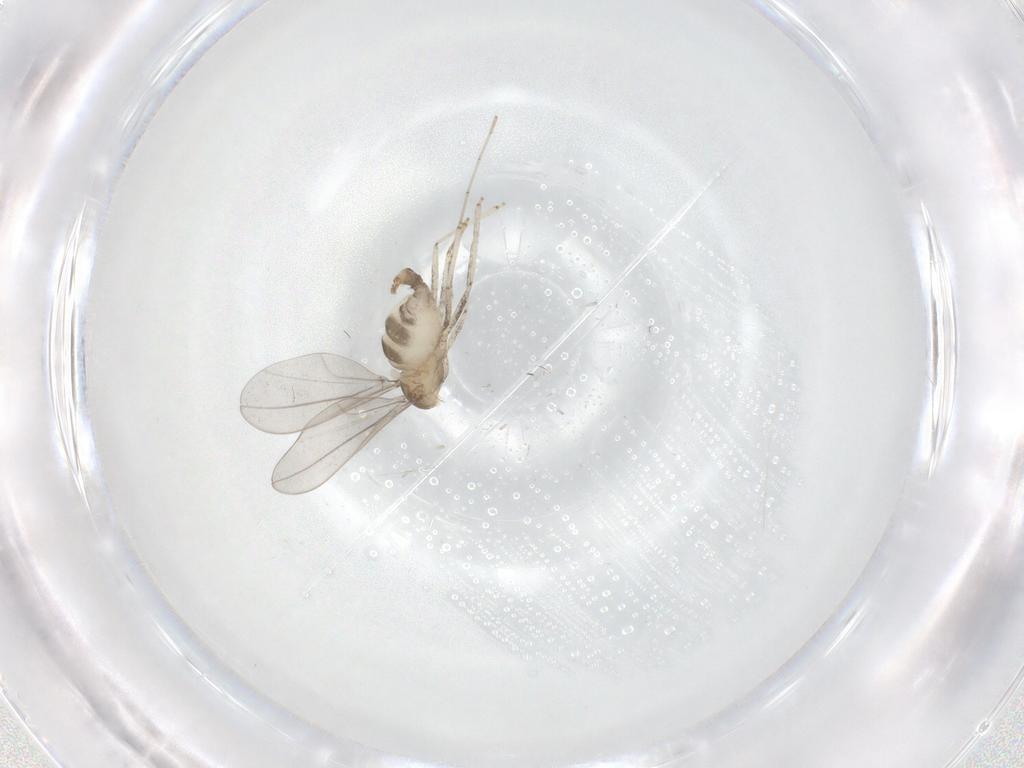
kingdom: Animalia
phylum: Arthropoda
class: Insecta
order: Diptera
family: Cecidomyiidae
